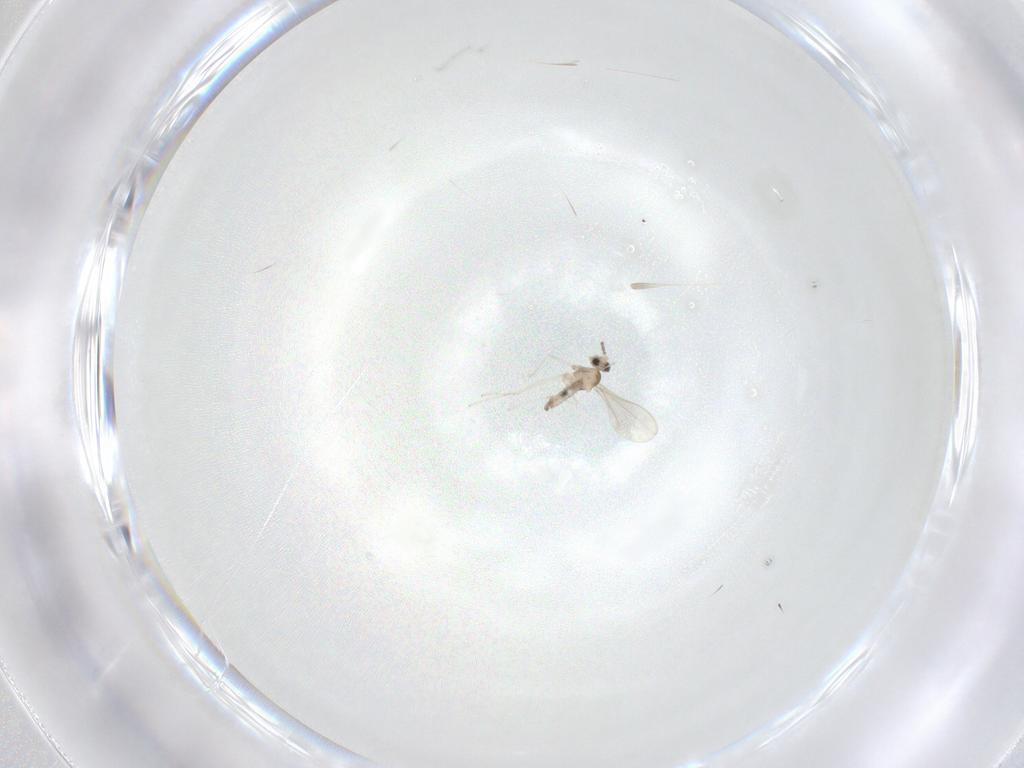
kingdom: Animalia
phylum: Arthropoda
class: Insecta
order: Diptera
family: Cecidomyiidae
